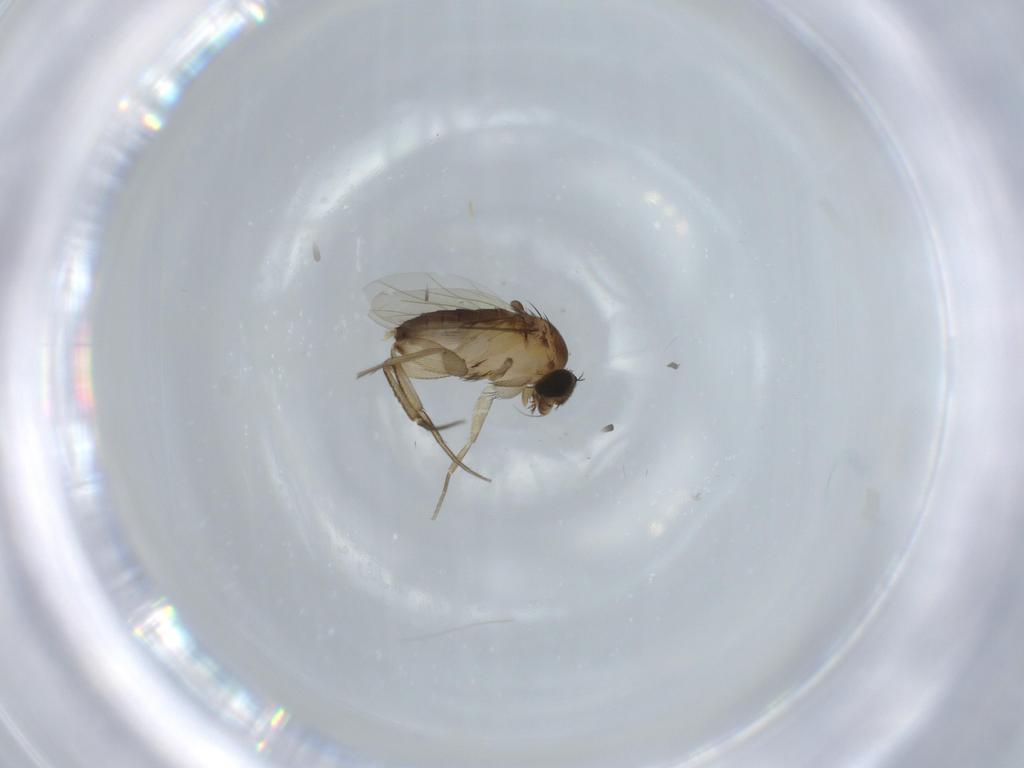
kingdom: Animalia
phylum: Arthropoda
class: Insecta
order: Diptera
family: Phoridae
